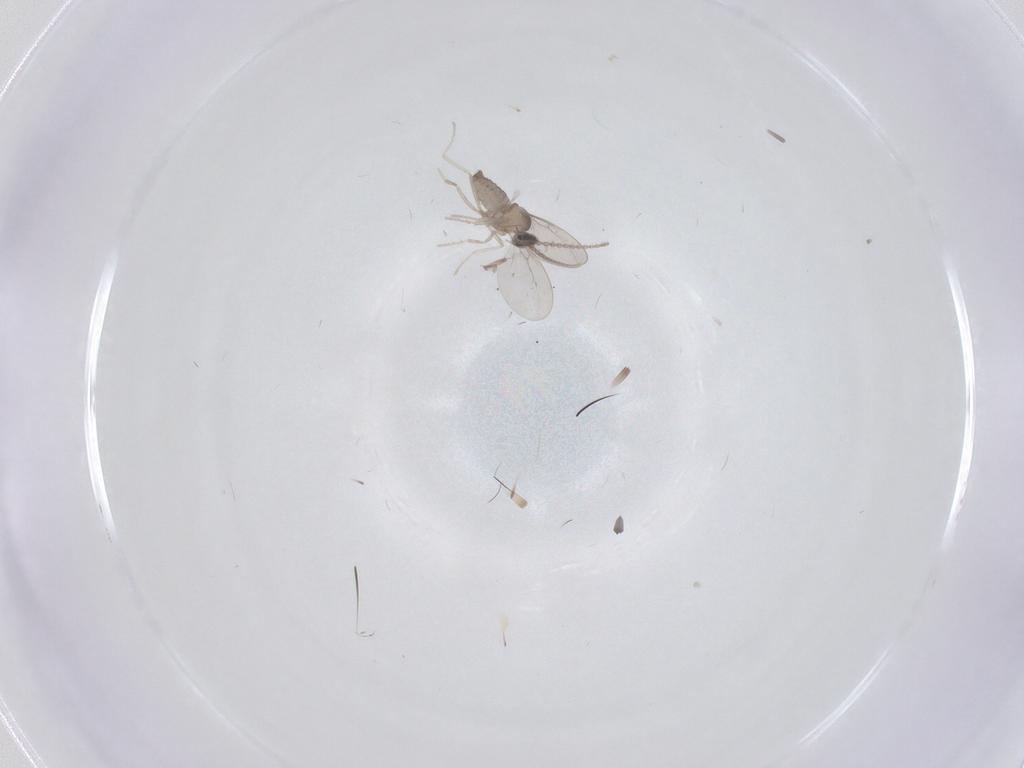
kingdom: Animalia
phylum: Arthropoda
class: Insecta
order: Diptera
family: Ceratopogonidae
